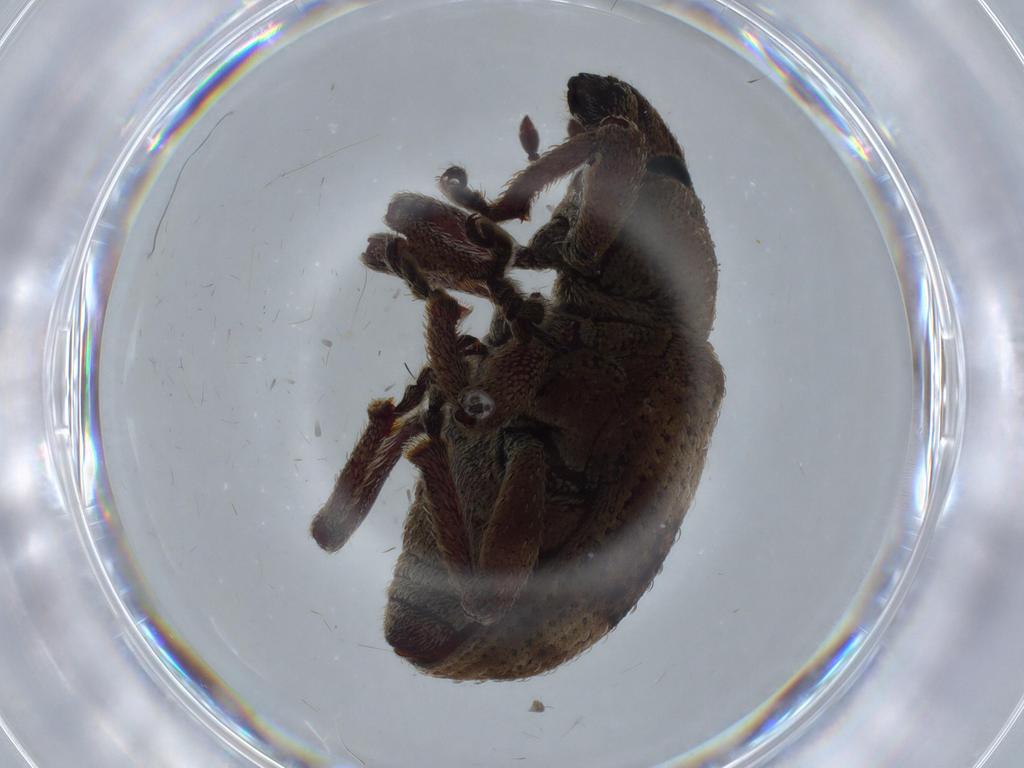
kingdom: Animalia
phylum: Arthropoda
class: Insecta
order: Coleoptera
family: Curculionidae
